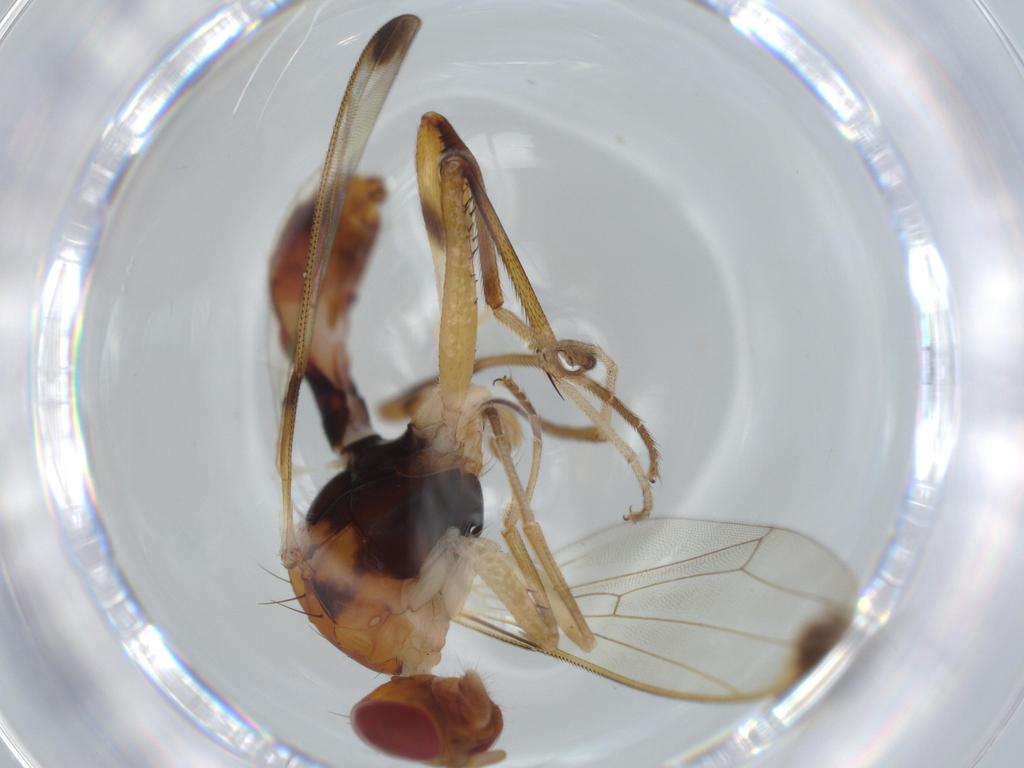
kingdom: Animalia
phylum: Arthropoda
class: Insecta
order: Diptera
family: Richardiidae
